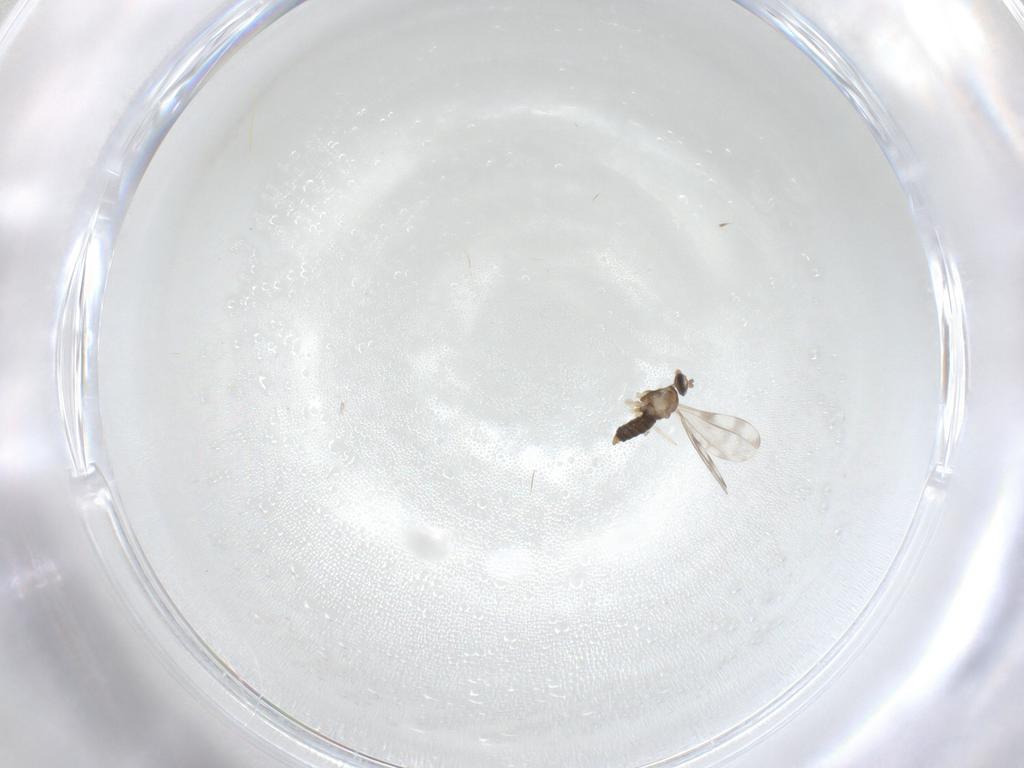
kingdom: Animalia
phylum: Arthropoda
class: Insecta
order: Diptera
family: Cecidomyiidae
